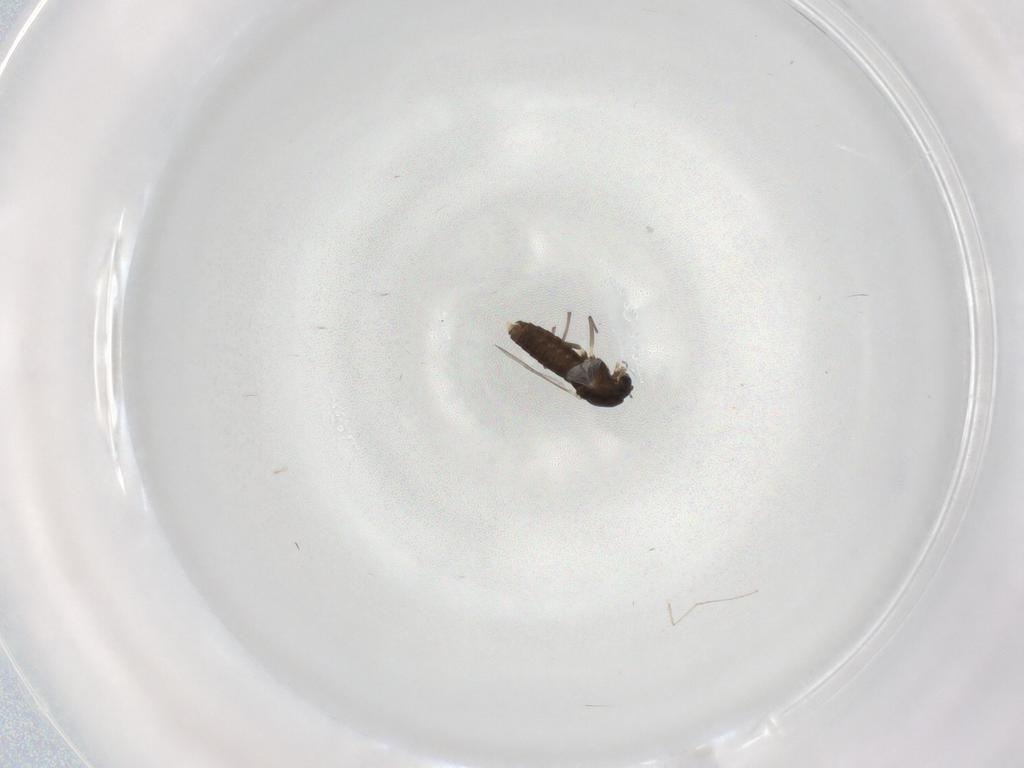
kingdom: Animalia
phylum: Arthropoda
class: Insecta
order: Diptera
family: Chironomidae
